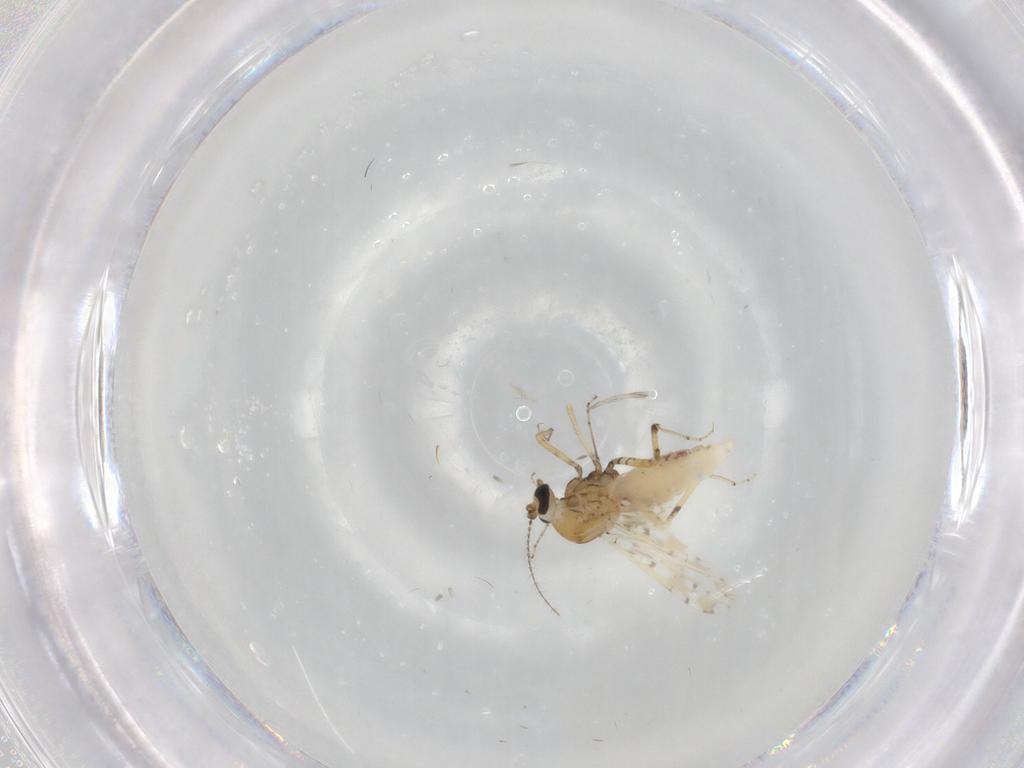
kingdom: Animalia
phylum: Arthropoda
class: Insecta
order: Diptera
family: Ceratopogonidae
